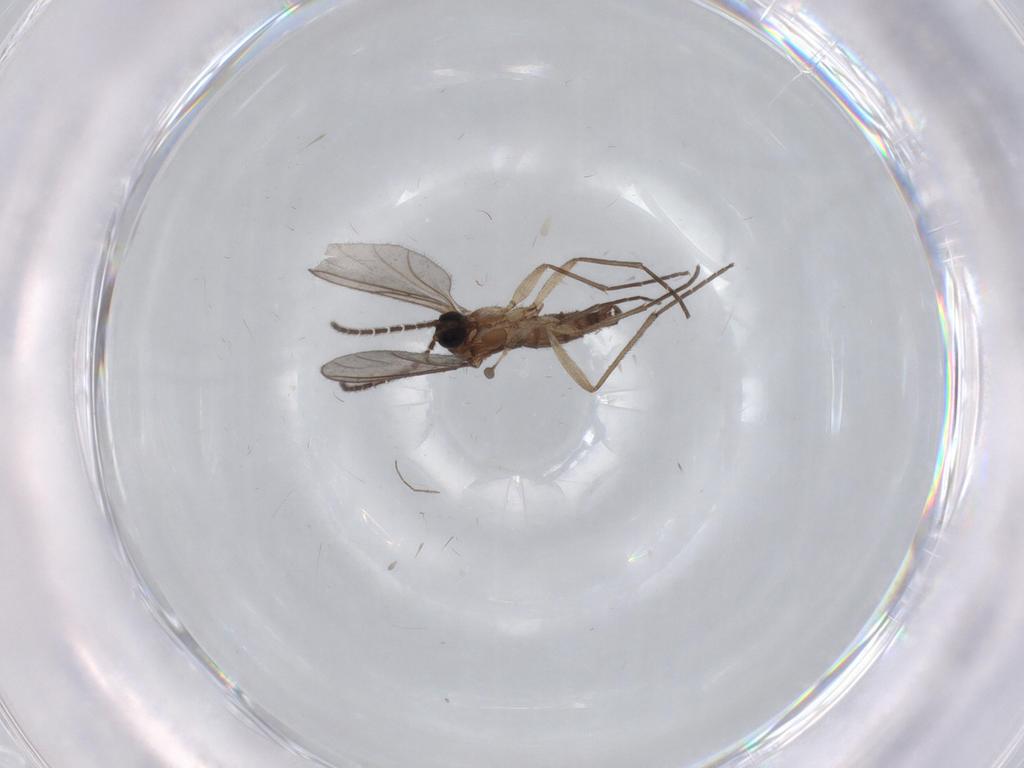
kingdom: Animalia
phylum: Arthropoda
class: Insecta
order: Diptera
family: Sciaridae
